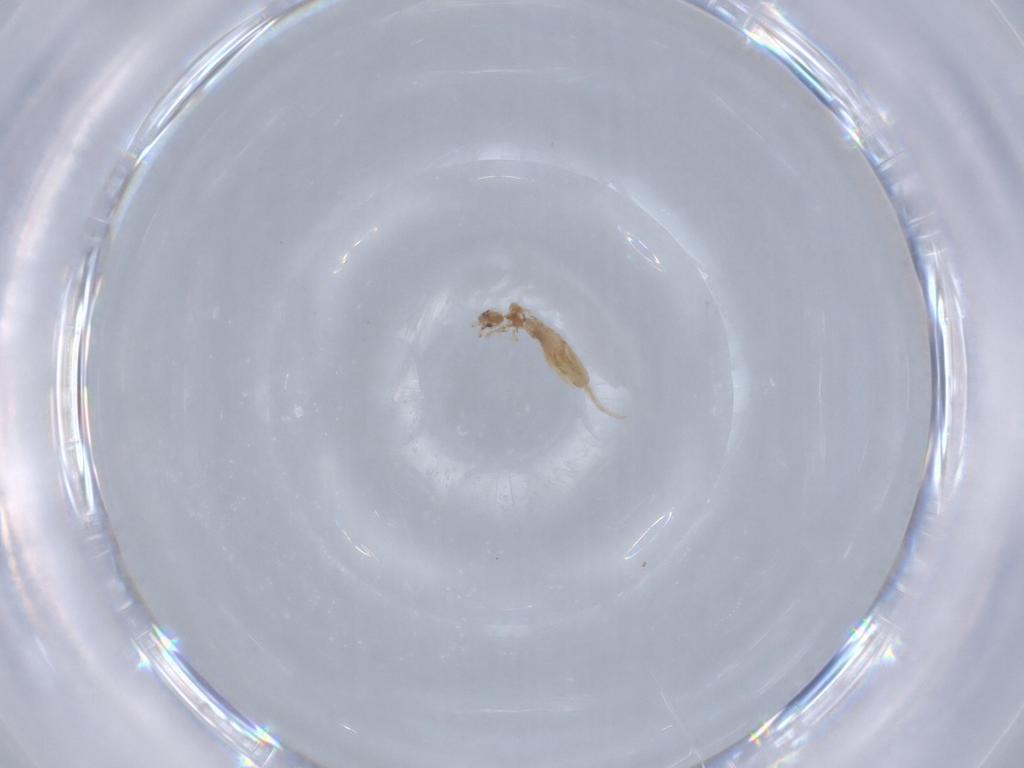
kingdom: Animalia
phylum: Arthropoda
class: Collembola
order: Entomobryomorpha
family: Entomobryidae
